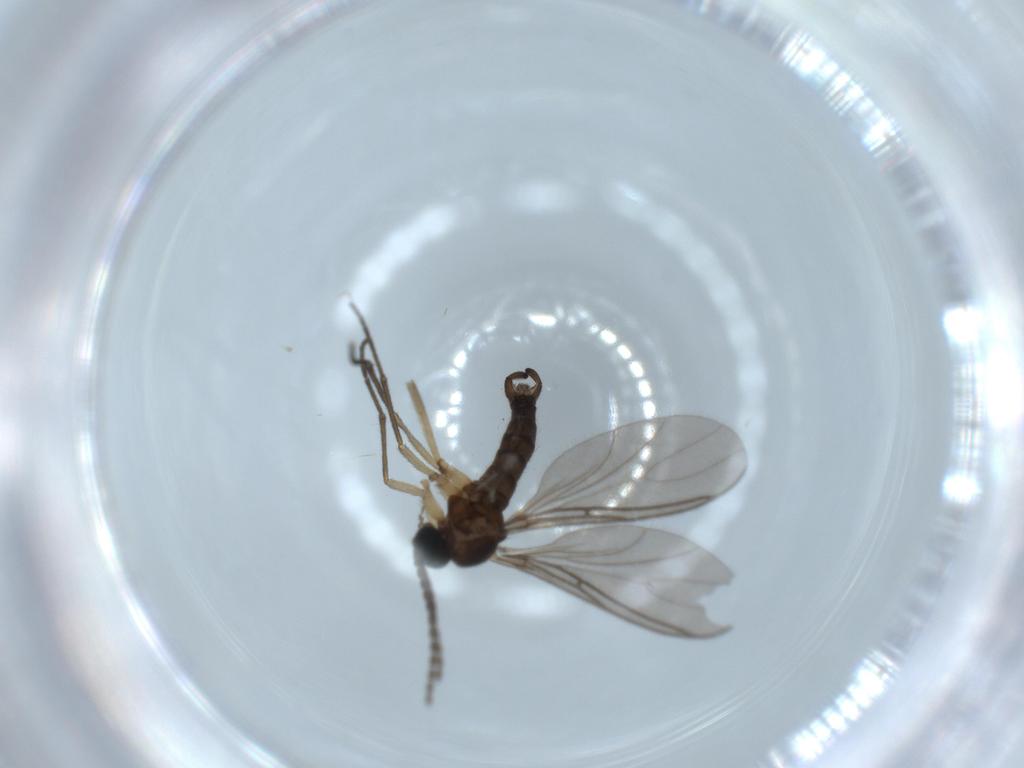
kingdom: Animalia
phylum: Arthropoda
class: Insecta
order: Diptera
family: Sciaridae
